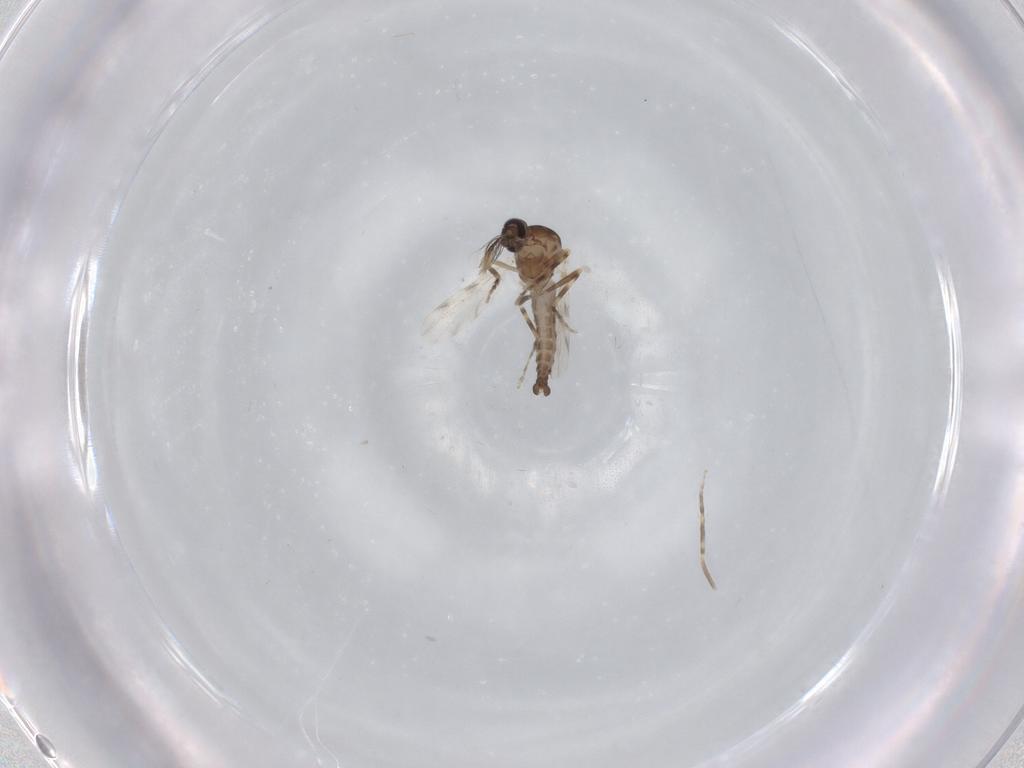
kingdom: Animalia
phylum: Arthropoda
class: Insecta
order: Diptera
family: Ceratopogonidae
